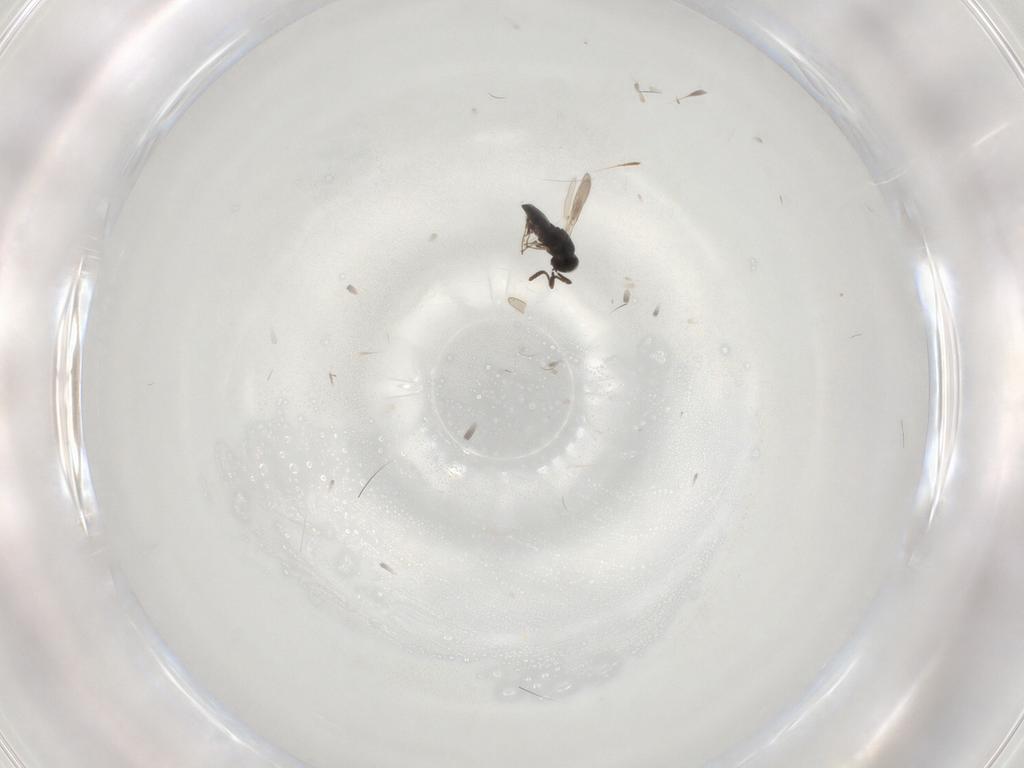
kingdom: Animalia
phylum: Arthropoda
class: Insecta
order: Hymenoptera
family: Scelionidae
